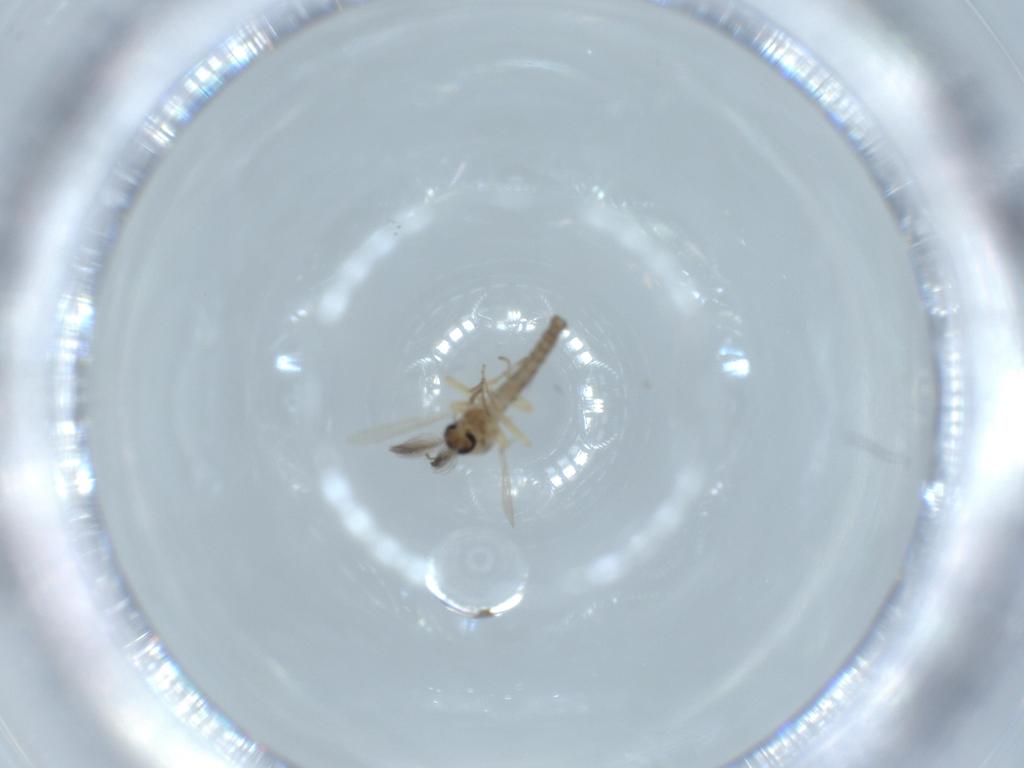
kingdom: Animalia
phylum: Arthropoda
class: Insecta
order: Diptera
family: Ceratopogonidae
